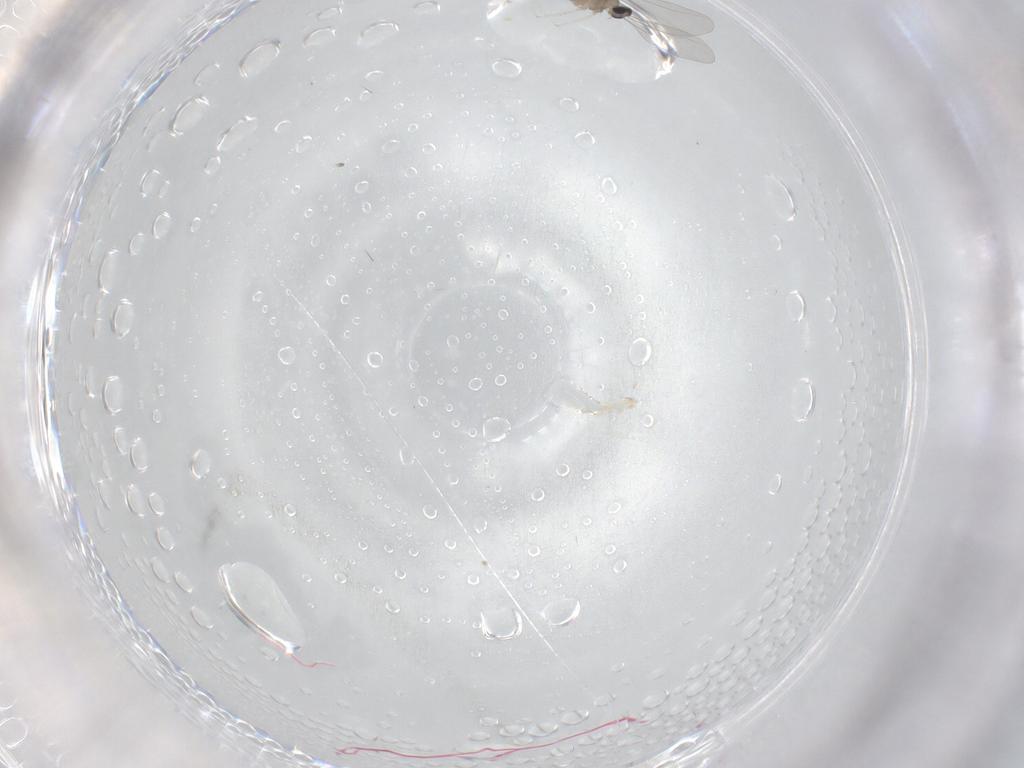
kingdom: Animalia
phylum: Arthropoda
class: Insecta
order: Diptera
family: Cecidomyiidae
